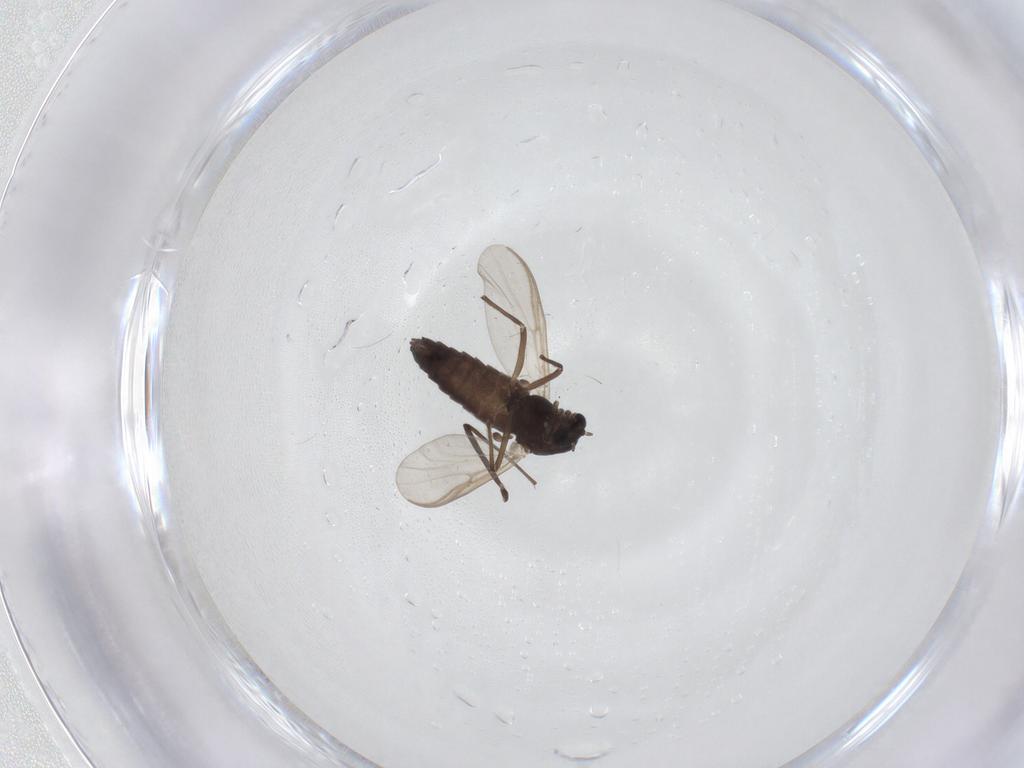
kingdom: Animalia
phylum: Arthropoda
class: Insecta
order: Diptera
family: Chironomidae
